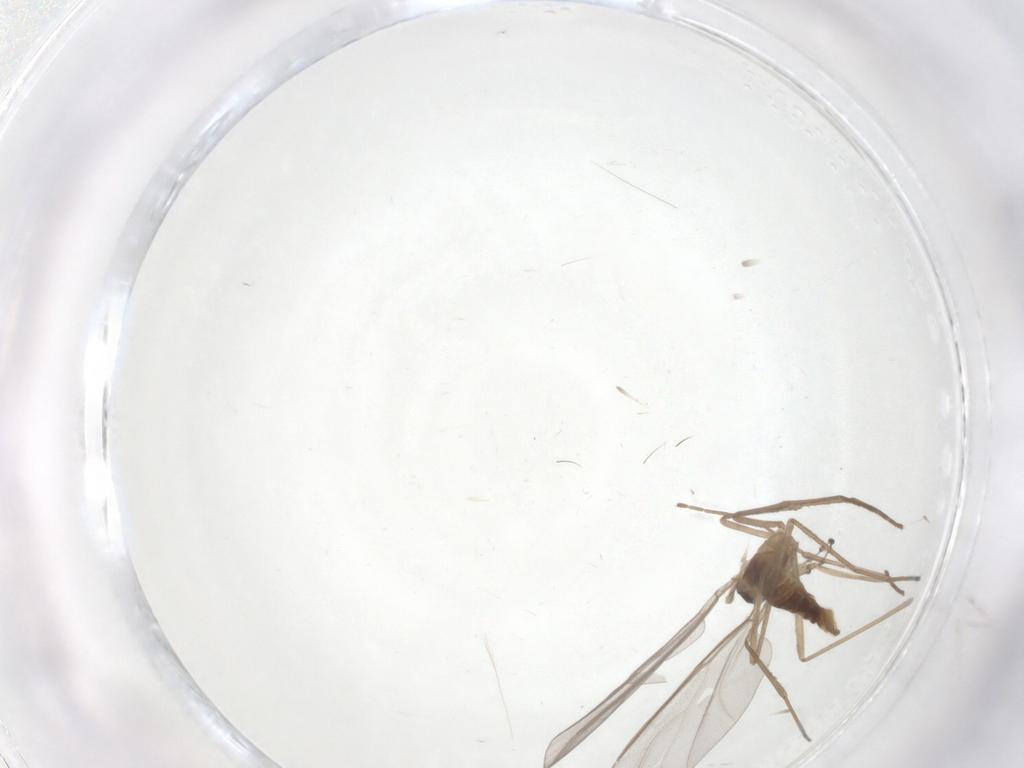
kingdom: Animalia
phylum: Arthropoda
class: Insecta
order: Diptera
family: Cecidomyiidae
